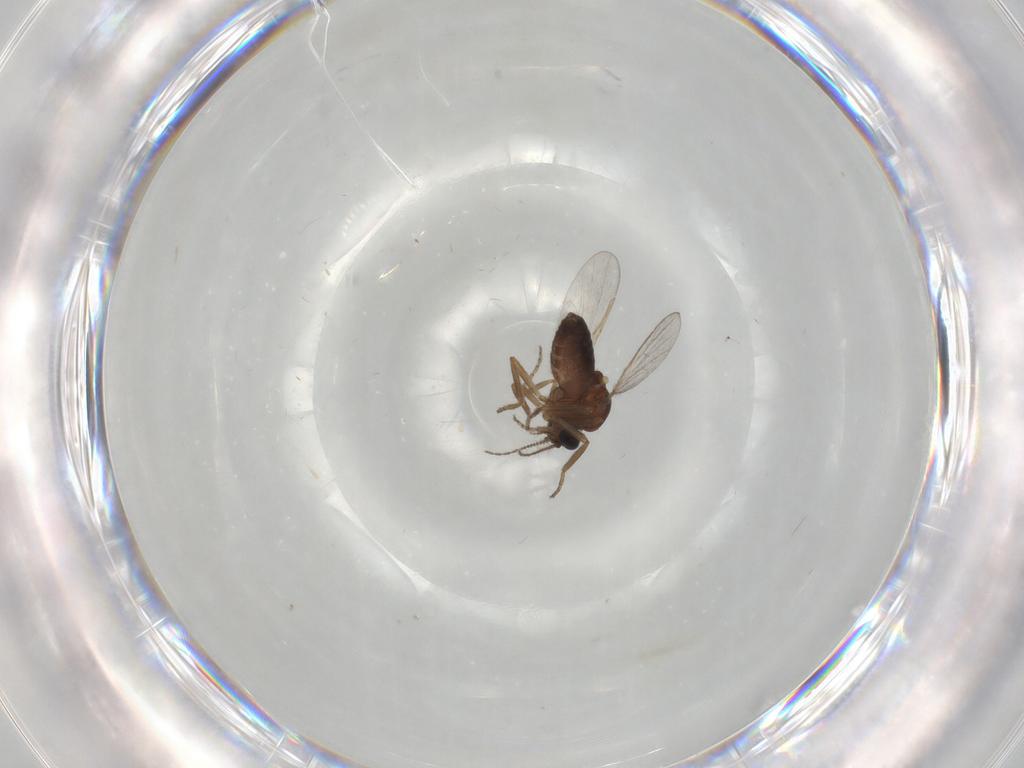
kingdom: Animalia
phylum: Arthropoda
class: Insecta
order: Diptera
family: Ceratopogonidae
